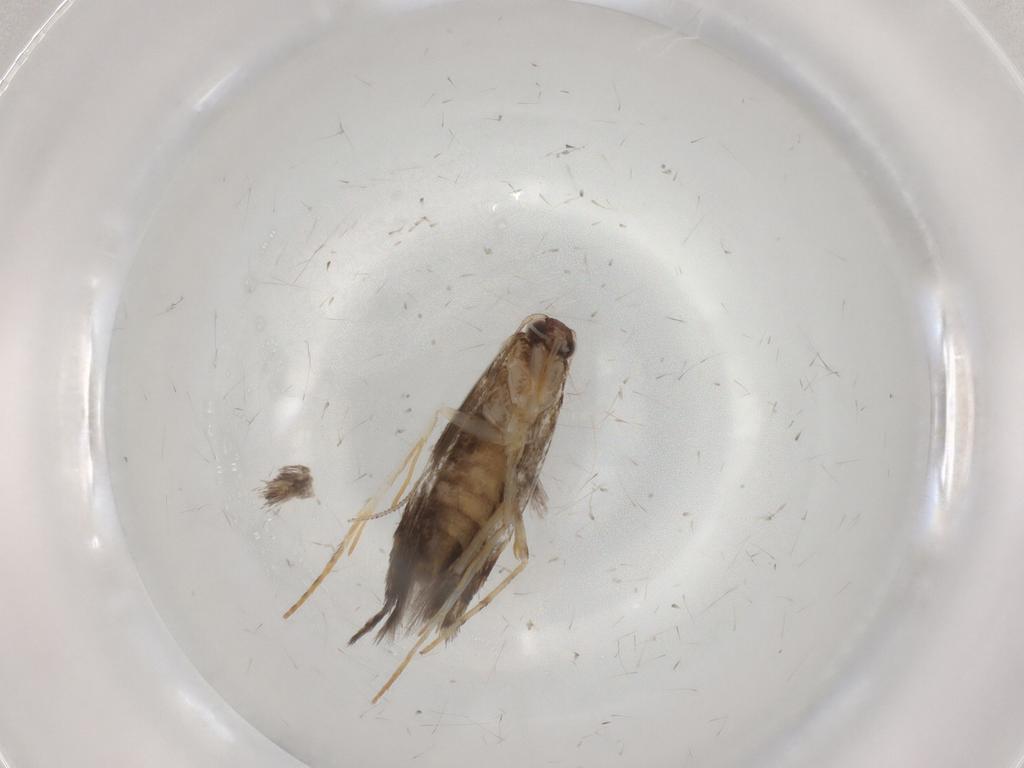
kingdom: Animalia
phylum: Arthropoda
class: Insecta
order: Lepidoptera
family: Gracillariidae
